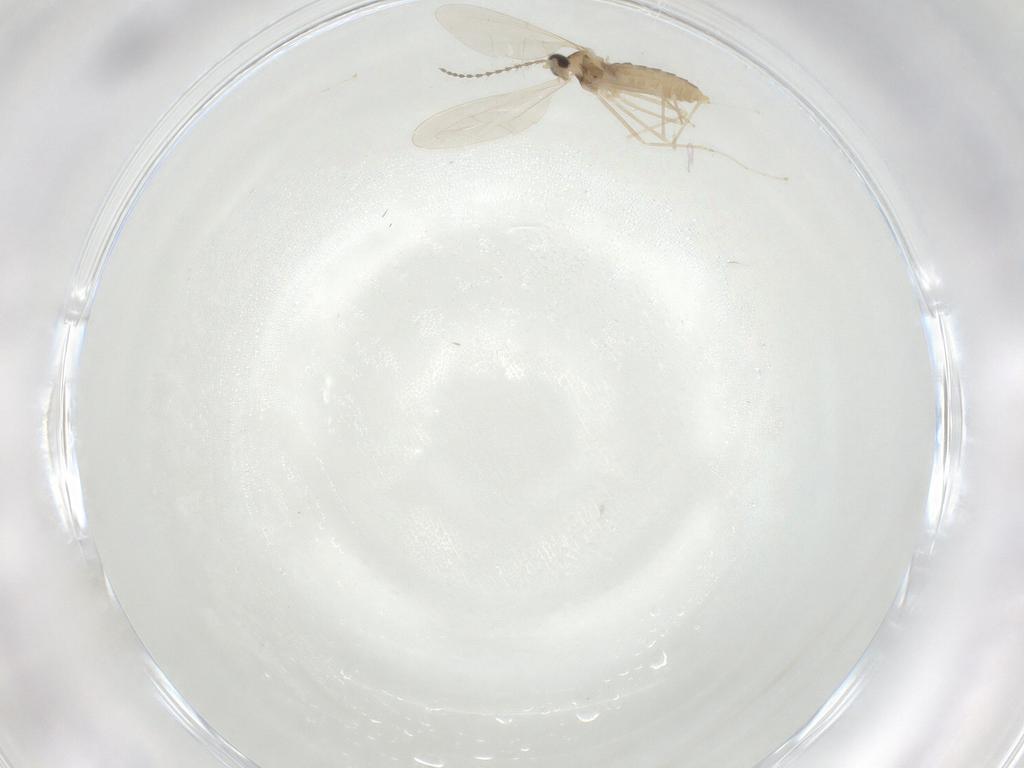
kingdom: Animalia
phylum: Arthropoda
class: Insecta
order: Diptera
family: Cecidomyiidae
